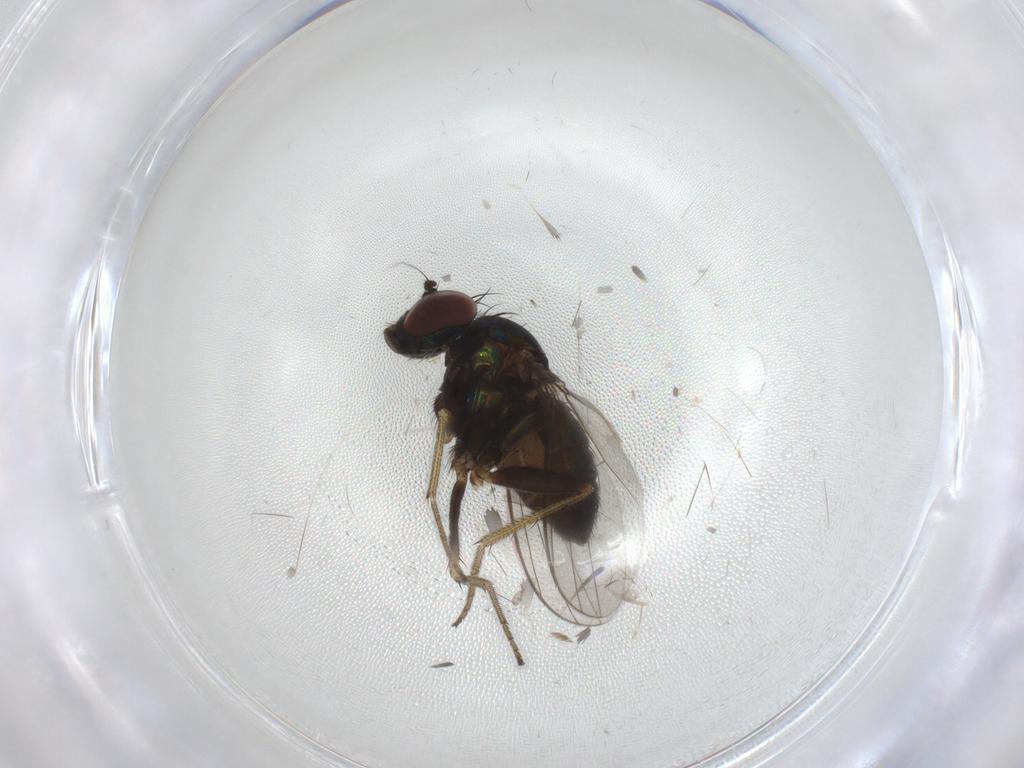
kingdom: Animalia
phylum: Arthropoda
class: Insecta
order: Diptera
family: Dolichopodidae
